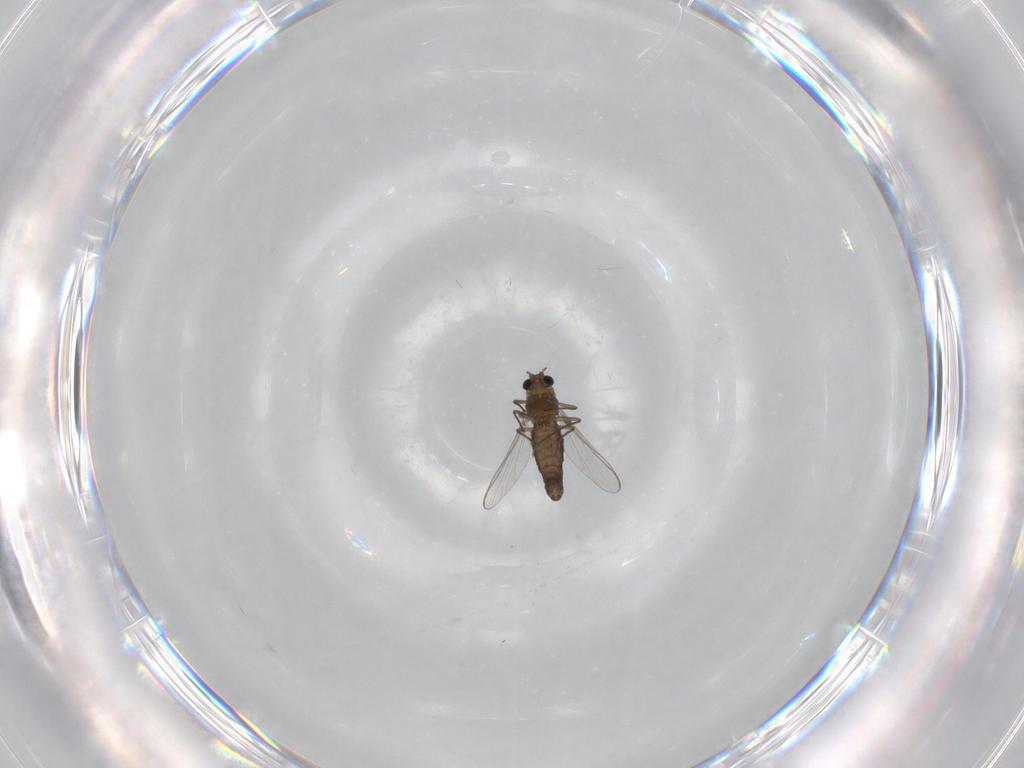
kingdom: Animalia
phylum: Arthropoda
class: Insecta
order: Diptera
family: Chironomidae
